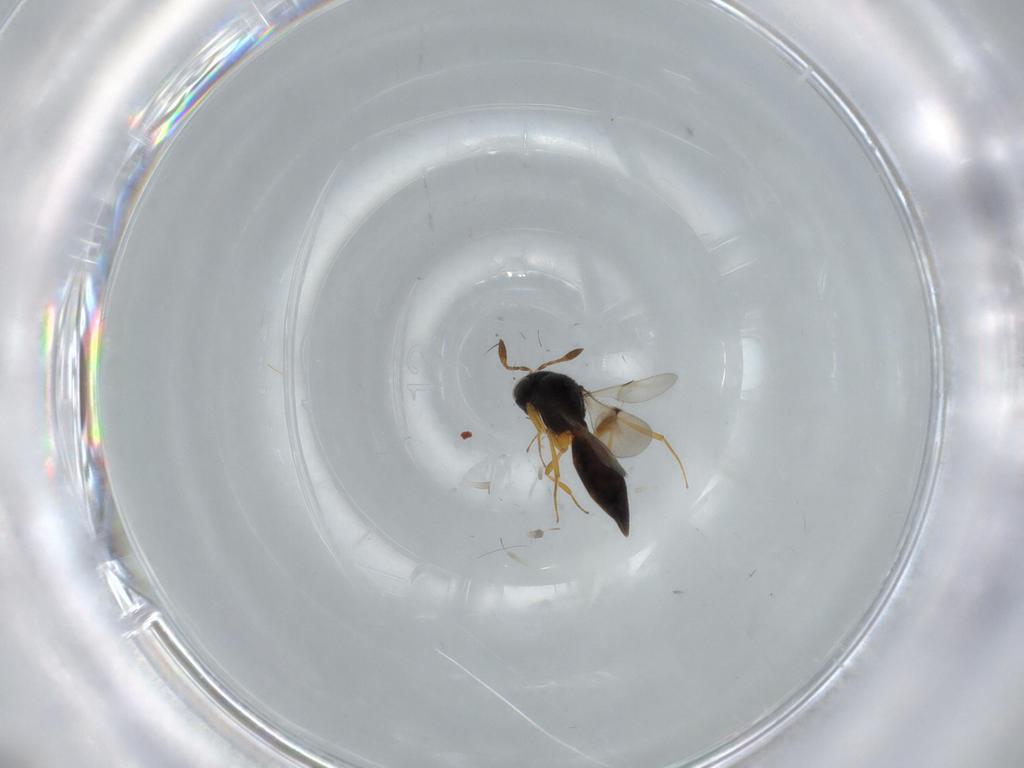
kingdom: Animalia
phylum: Arthropoda
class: Insecta
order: Hymenoptera
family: Scelionidae
